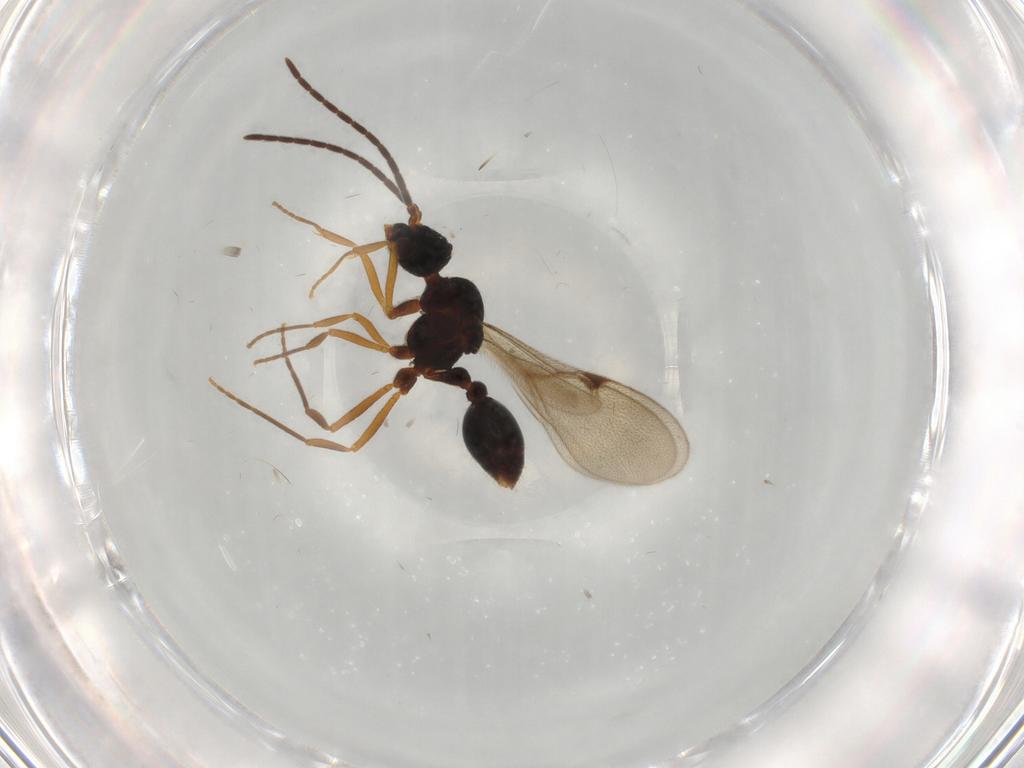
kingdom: Animalia
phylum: Arthropoda
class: Insecta
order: Hymenoptera
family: Formicidae
